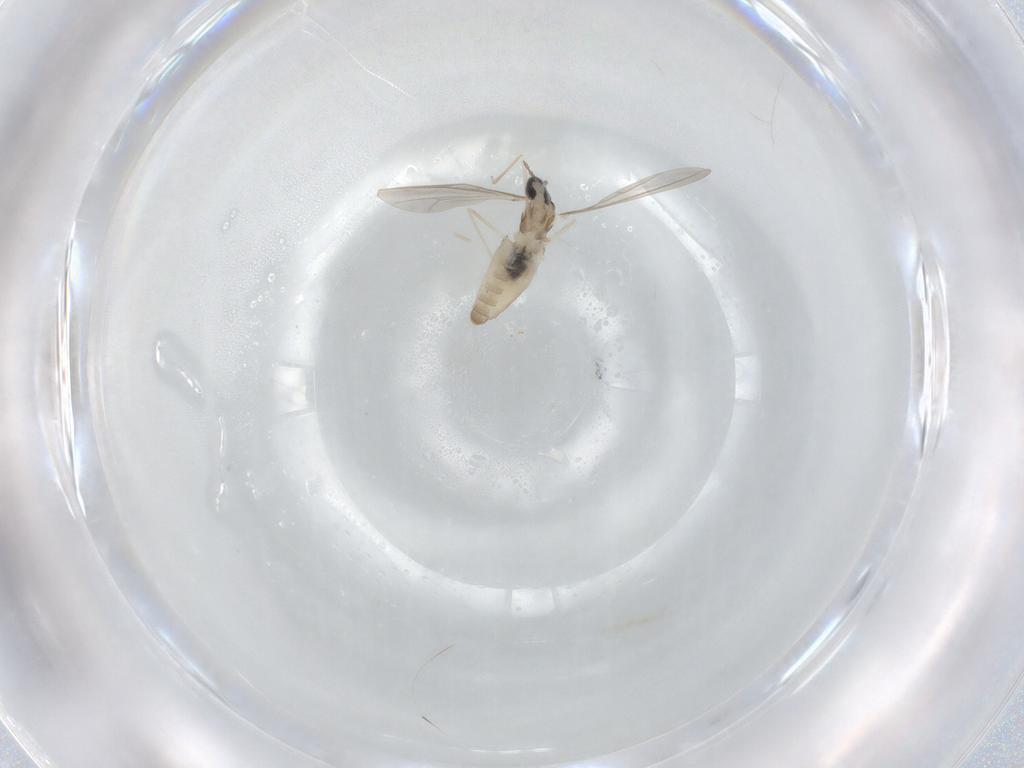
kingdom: Animalia
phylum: Arthropoda
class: Insecta
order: Diptera
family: Cecidomyiidae
